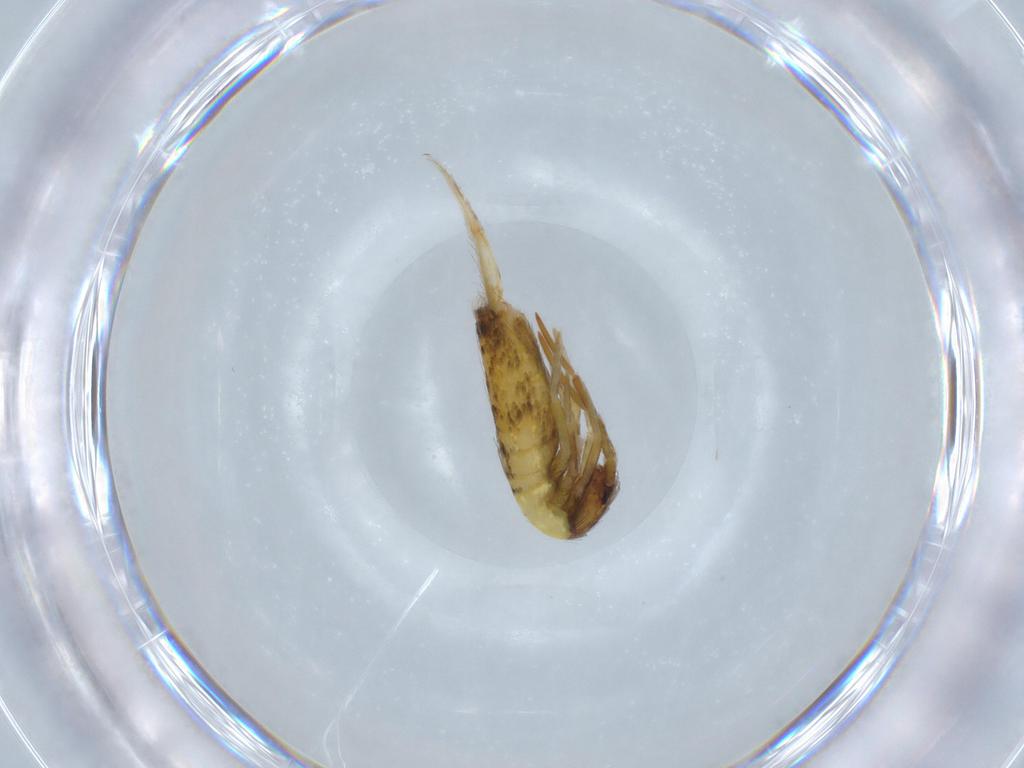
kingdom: Animalia
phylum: Arthropoda
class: Collembola
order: Entomobryomorpha
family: Entomobryidae
